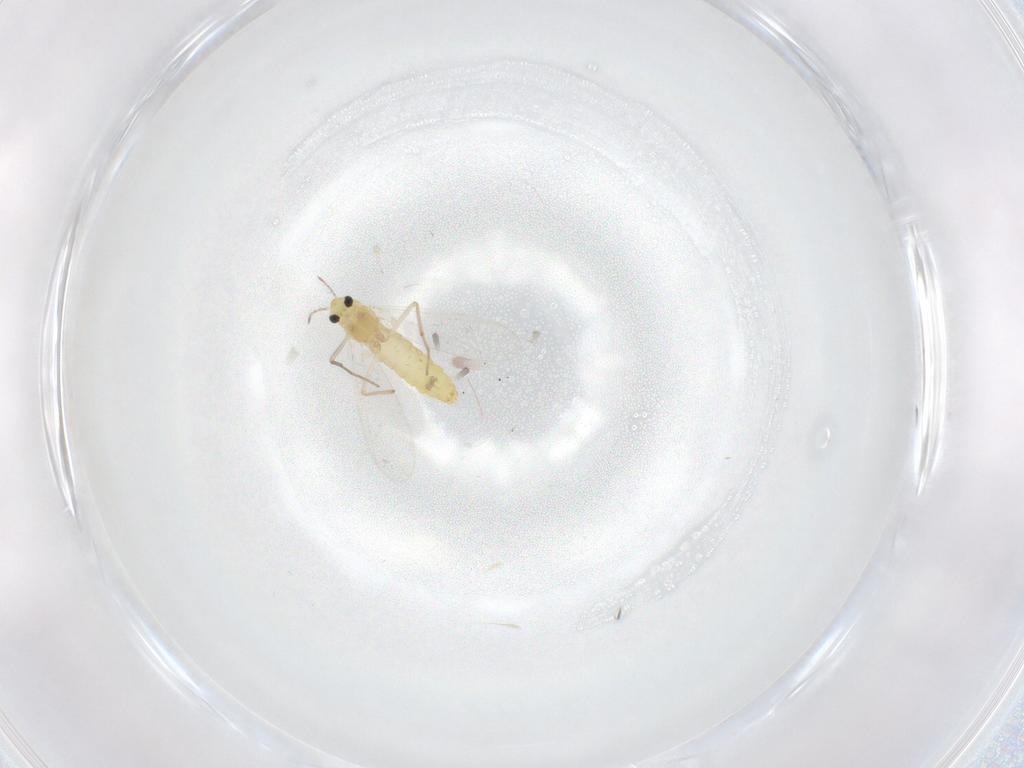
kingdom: Animalia
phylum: Arthropoda
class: Insecta
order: Diptera
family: Chironomidae
